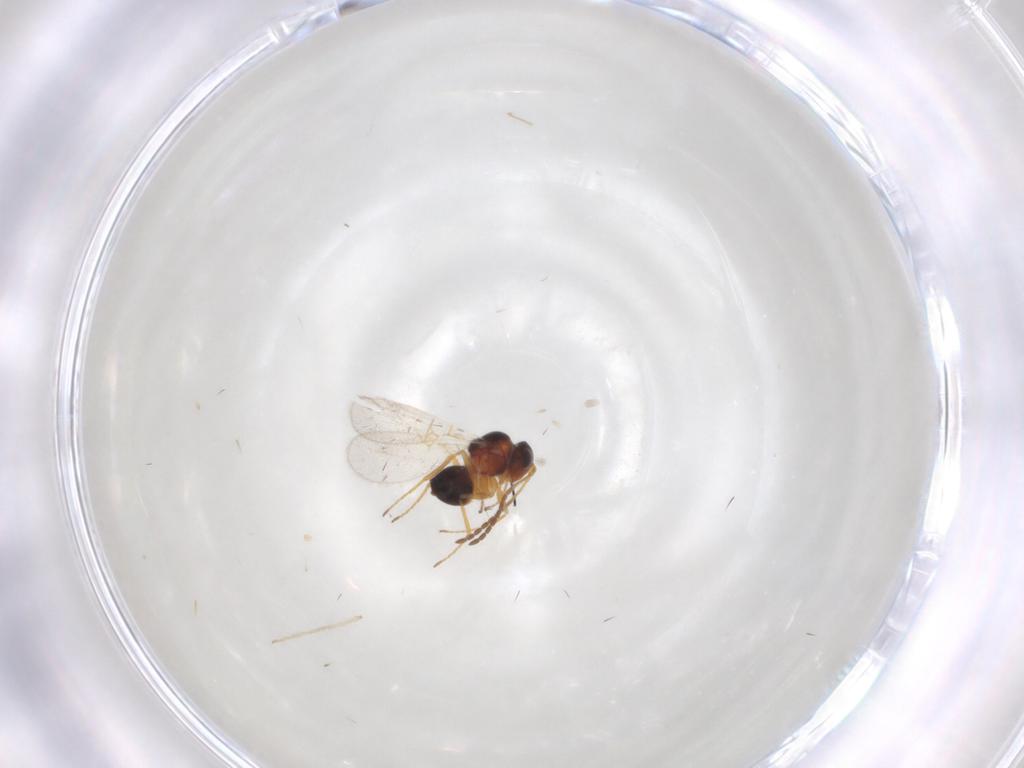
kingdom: Animalia
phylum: Arthropoda
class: Insecta
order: Hymenoptera
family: Figitidae
